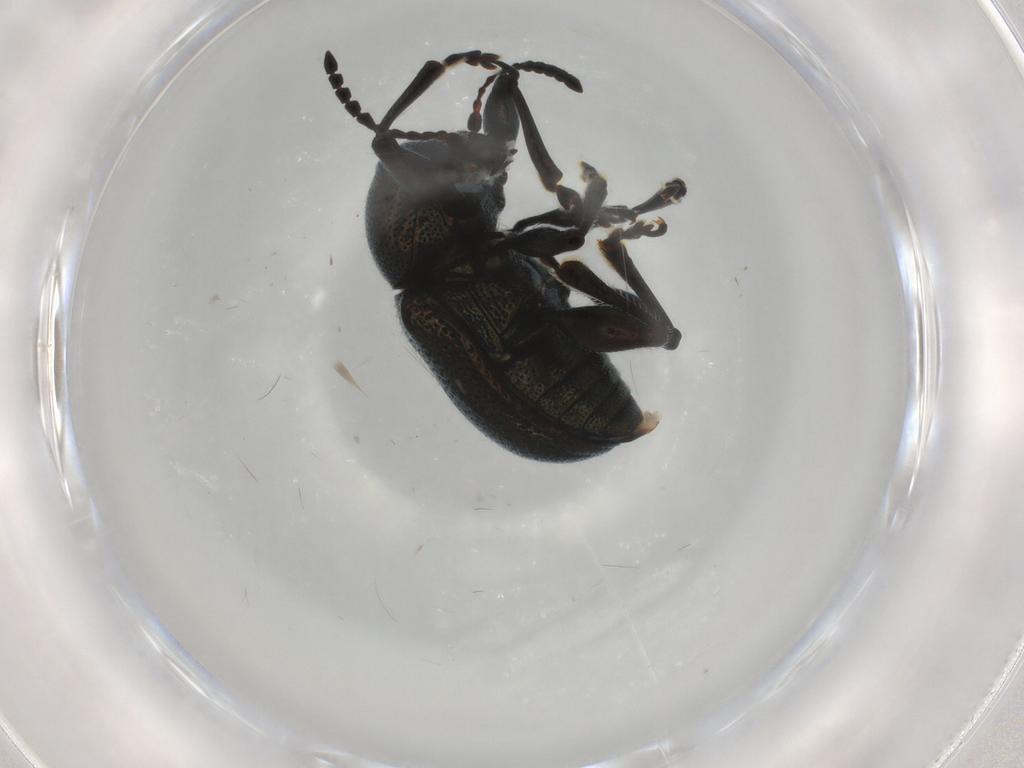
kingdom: Animalia
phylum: Arthropoda
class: Insecta
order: Coleoptera
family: Chrysomelidae
